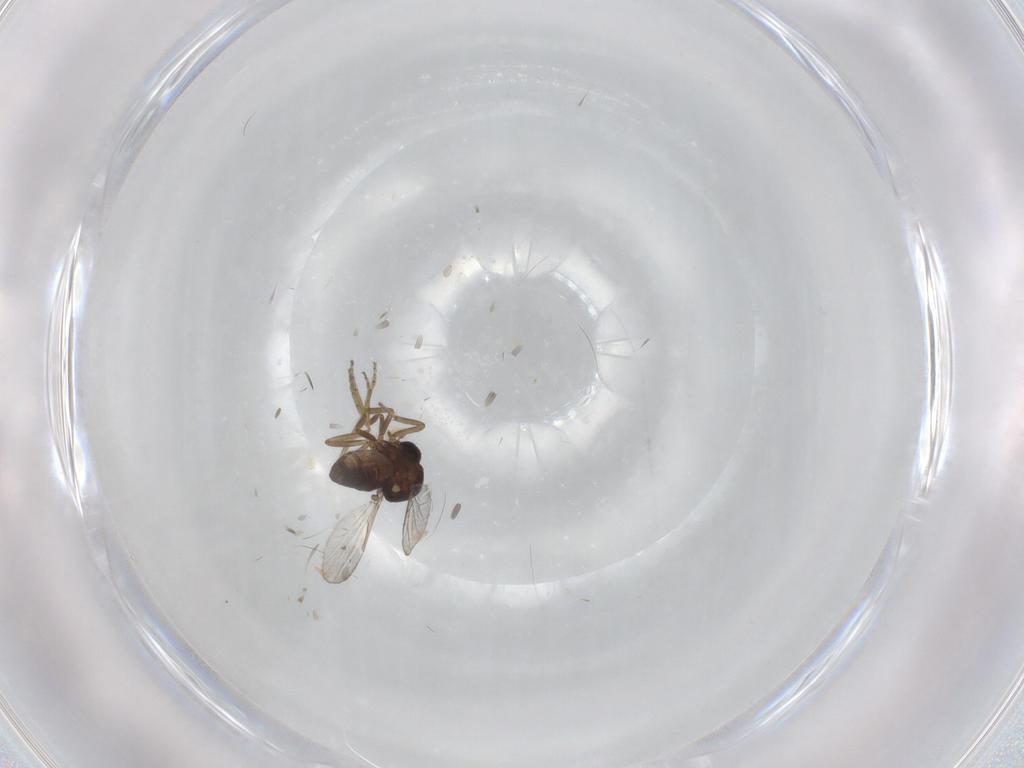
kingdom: Animalia
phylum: Arthropoda
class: Insecta
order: Diptera
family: Ceratopogonidae
